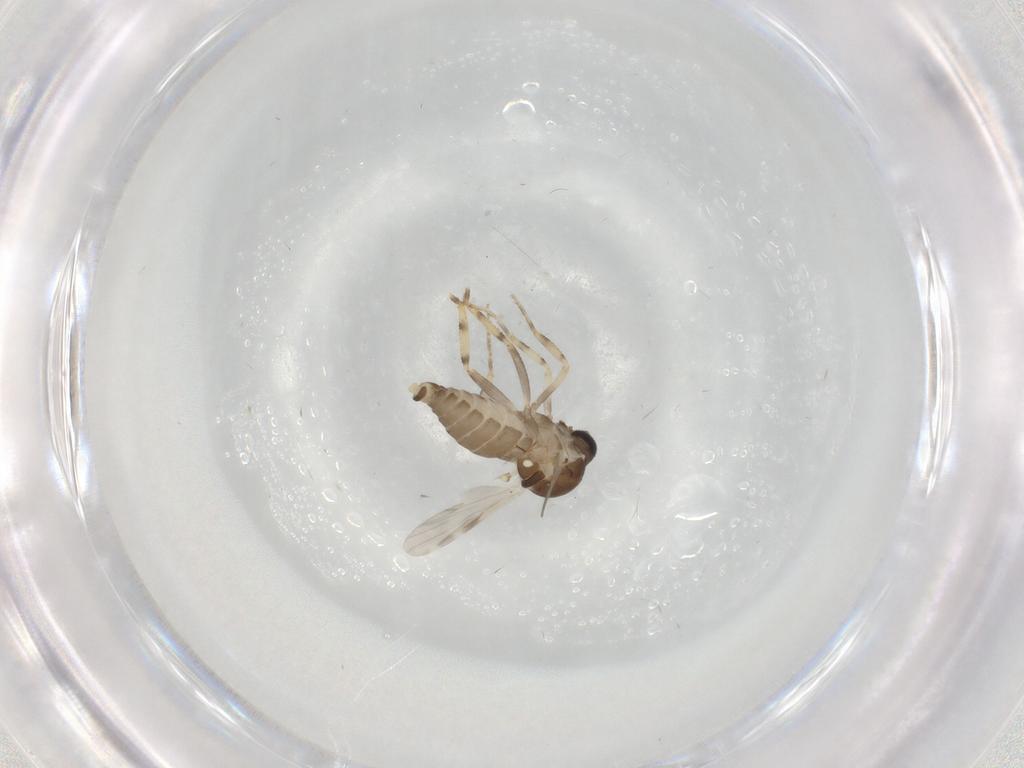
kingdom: Animalia
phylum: Arthropoda
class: Insecta
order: Diptera
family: Ceratopogonidae
